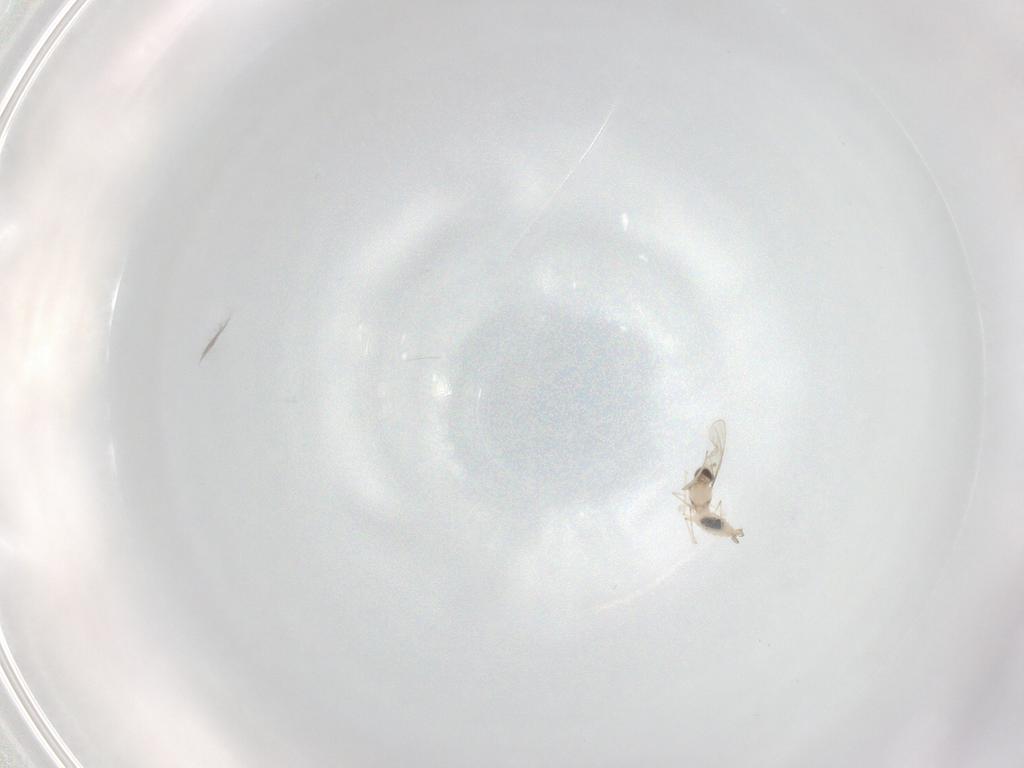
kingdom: Animalia
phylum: Arthropoda
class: Insecta
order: Diptera
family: Cecidomyiidae
